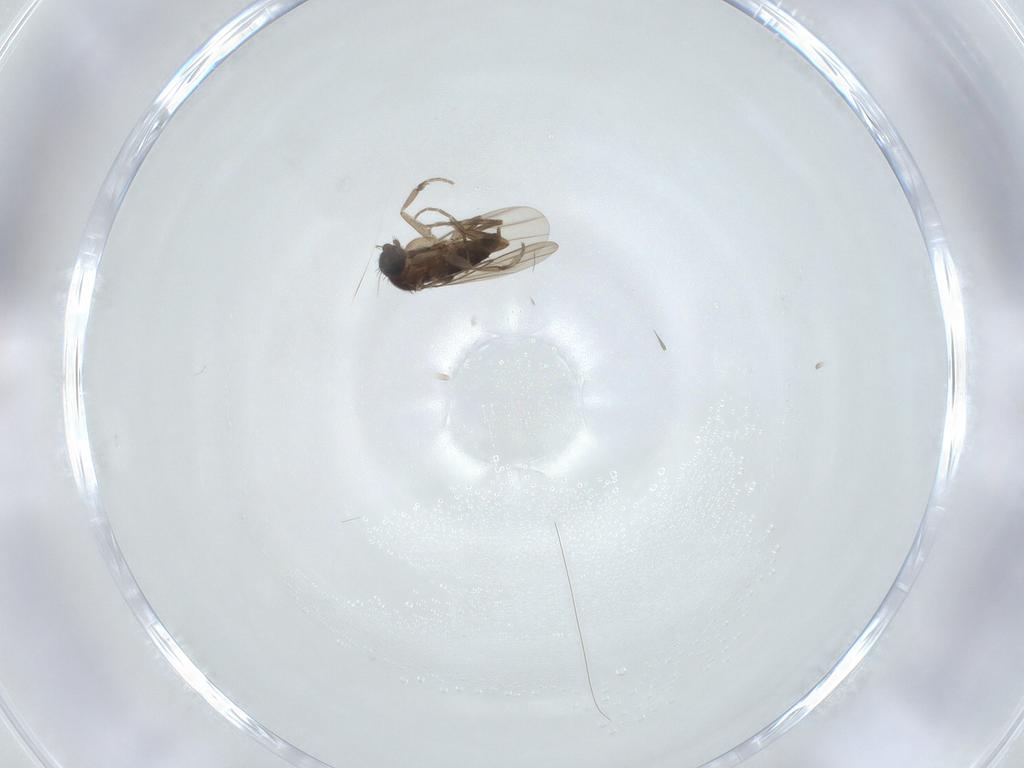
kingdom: Animalia
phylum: Arthropoda
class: Insecta
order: Diptera
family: Phoridae
